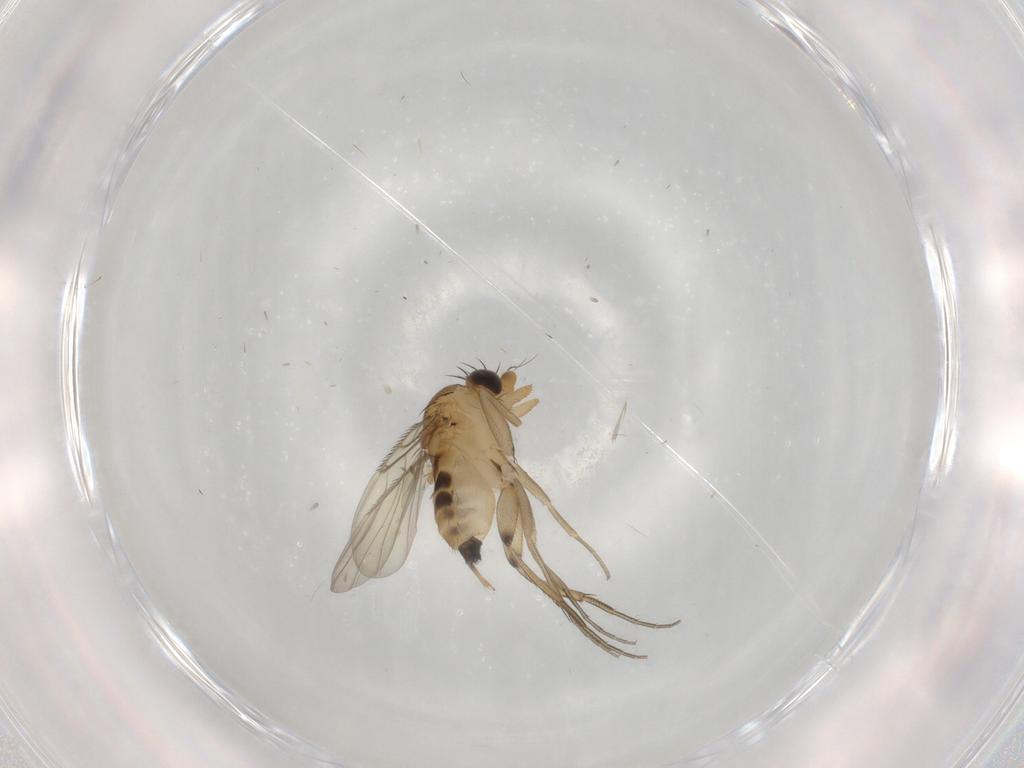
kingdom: Animalia
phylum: Arthropoda
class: Insecta
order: Diptera
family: Phoridae
